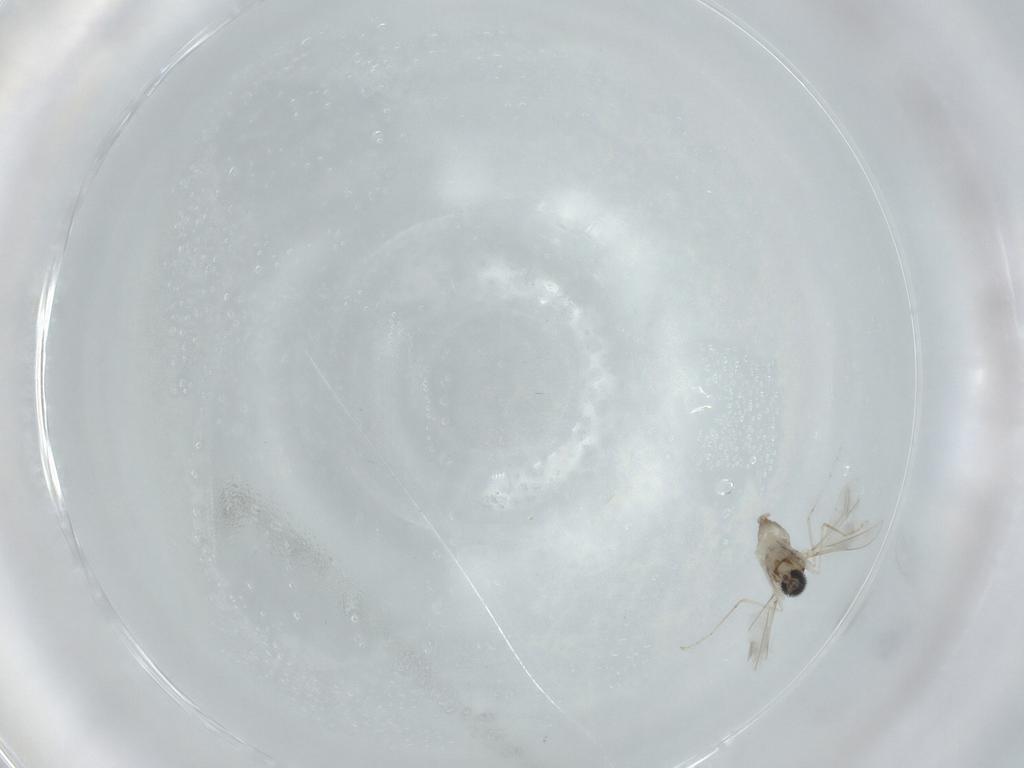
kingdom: Animalia
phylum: Arthropoda
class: Insecta
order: Diptera
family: Cecidomyiidae
